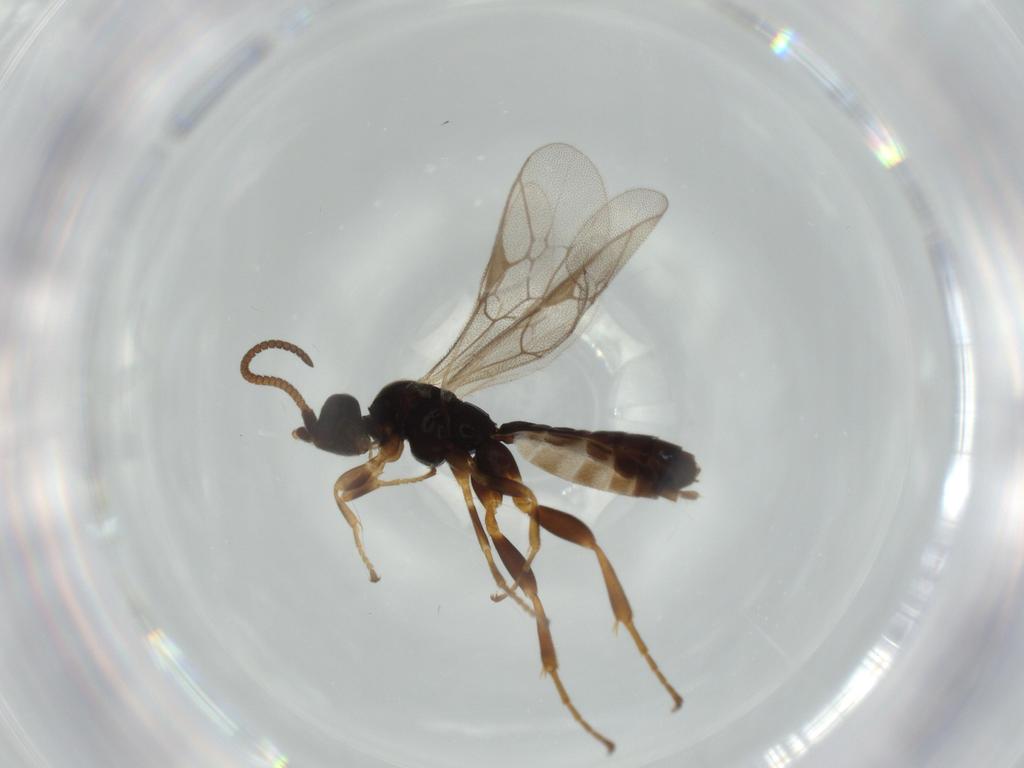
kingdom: Animalia
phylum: Arthropoda
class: Insecta
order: Hymenoptera
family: Ichneumonidae
